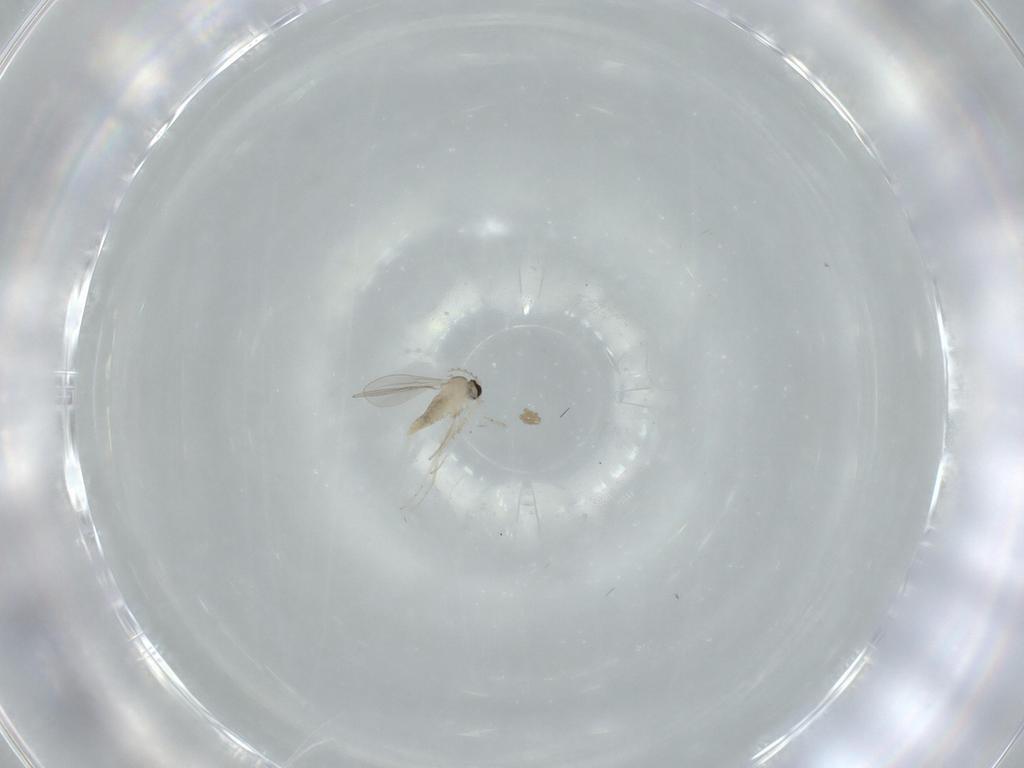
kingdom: Animalia
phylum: Arthropoda
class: Insecta
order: Diptera
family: Cecidomyiidae
